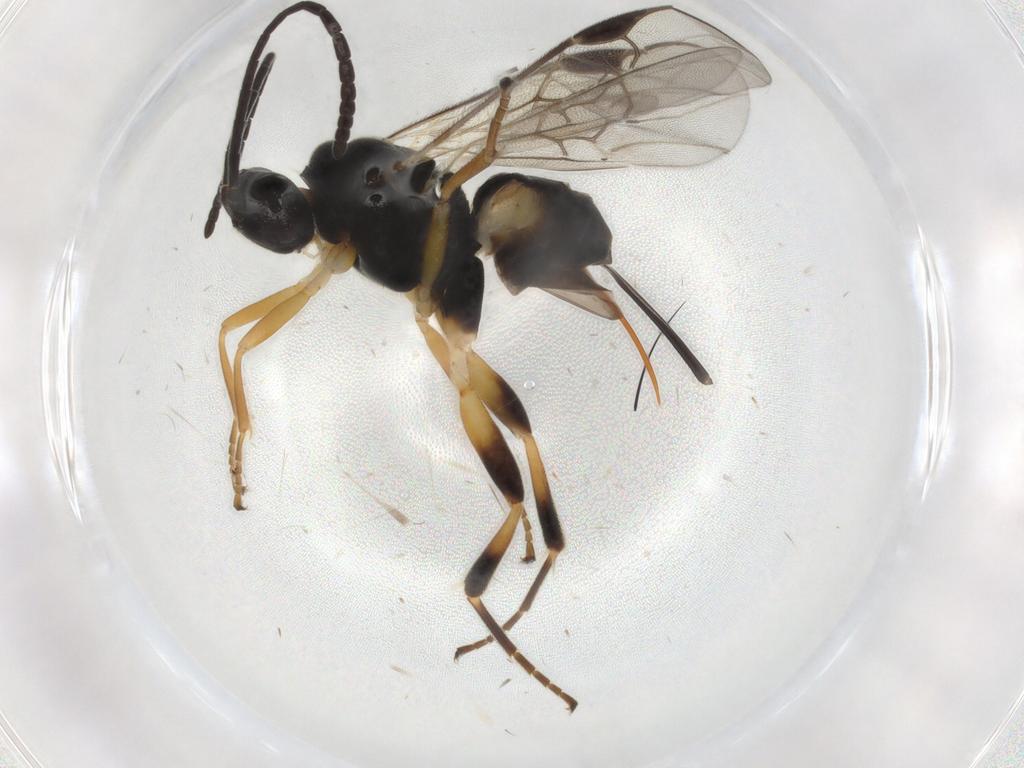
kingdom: Animalia
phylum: Arthropoda
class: Insecta
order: Hymenoptera
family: Braconidae
